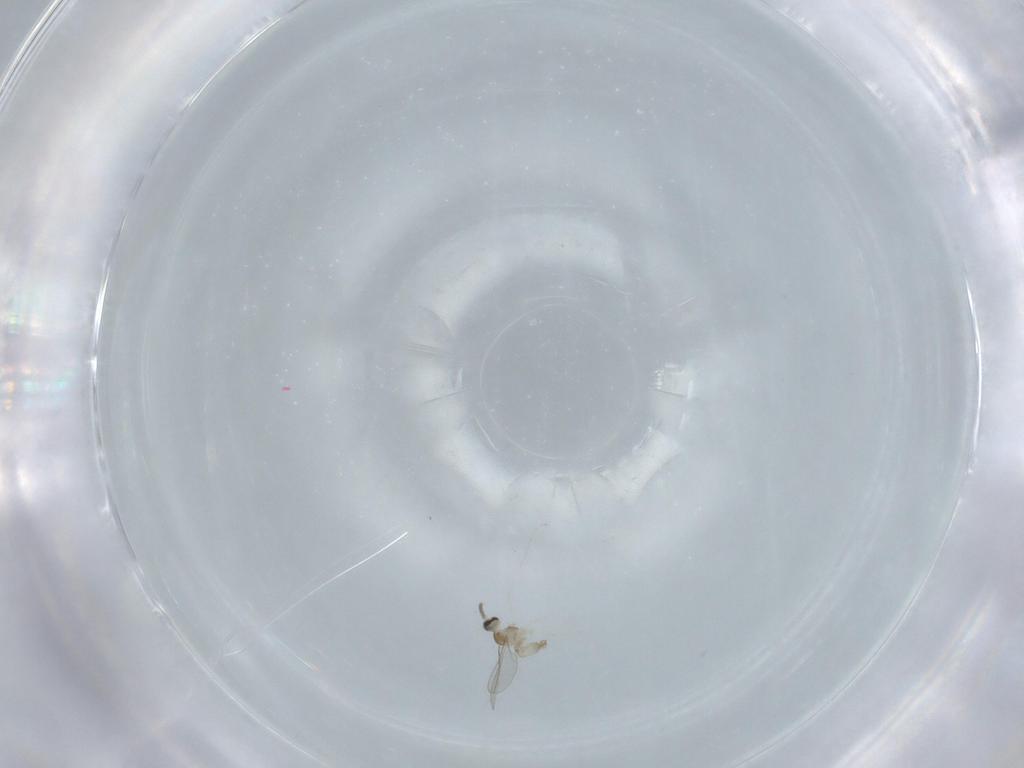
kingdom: Animalia
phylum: Arthropoda
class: Insecta
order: Diptera
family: Cecidomyiidae
